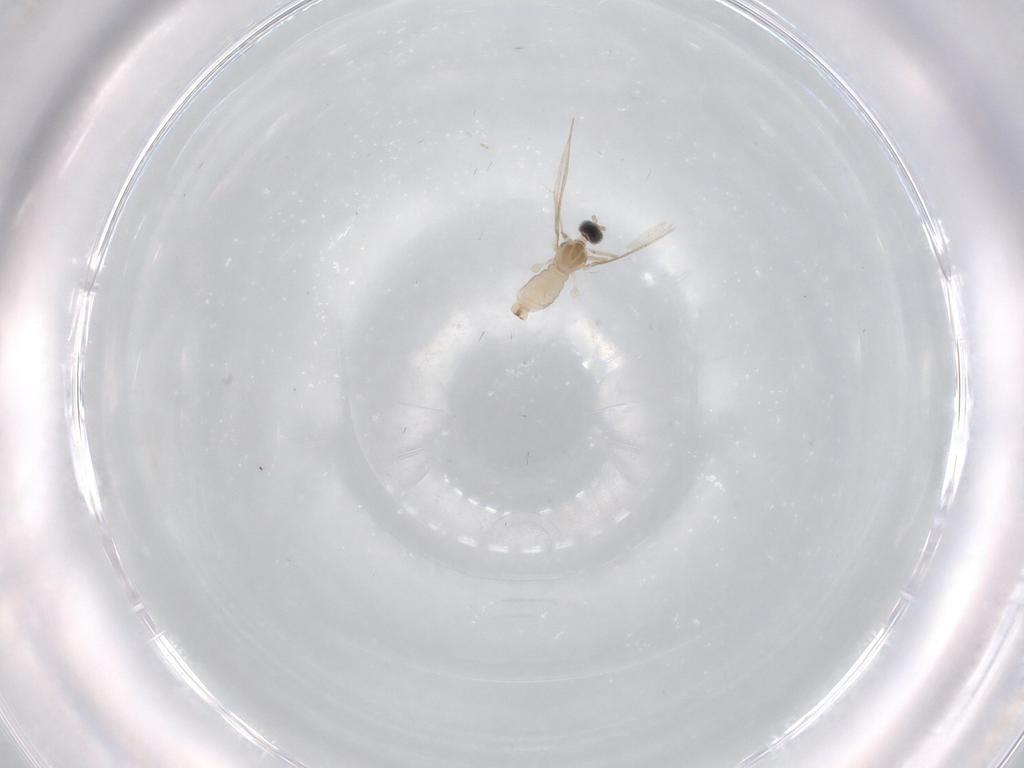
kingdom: Animalia
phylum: Arthropoda
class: Insecta
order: Diptera
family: Cecidomyiidae
